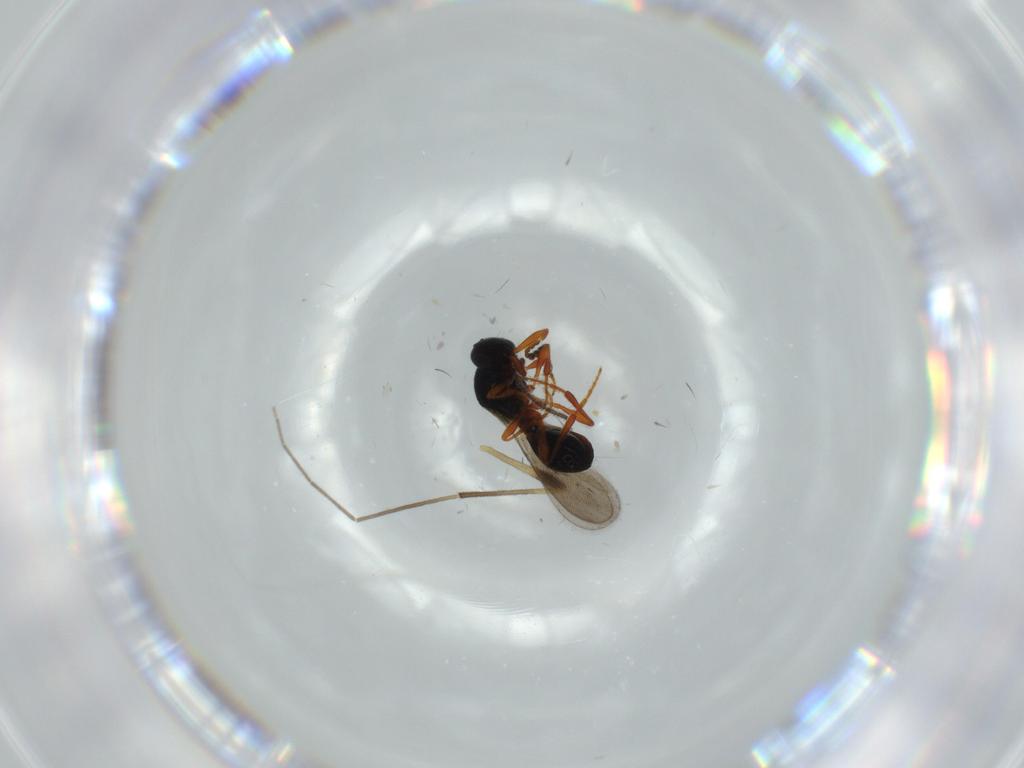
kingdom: Animalia
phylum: Arthropoda
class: Insecta
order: Hymenoptera
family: Platygastridae
